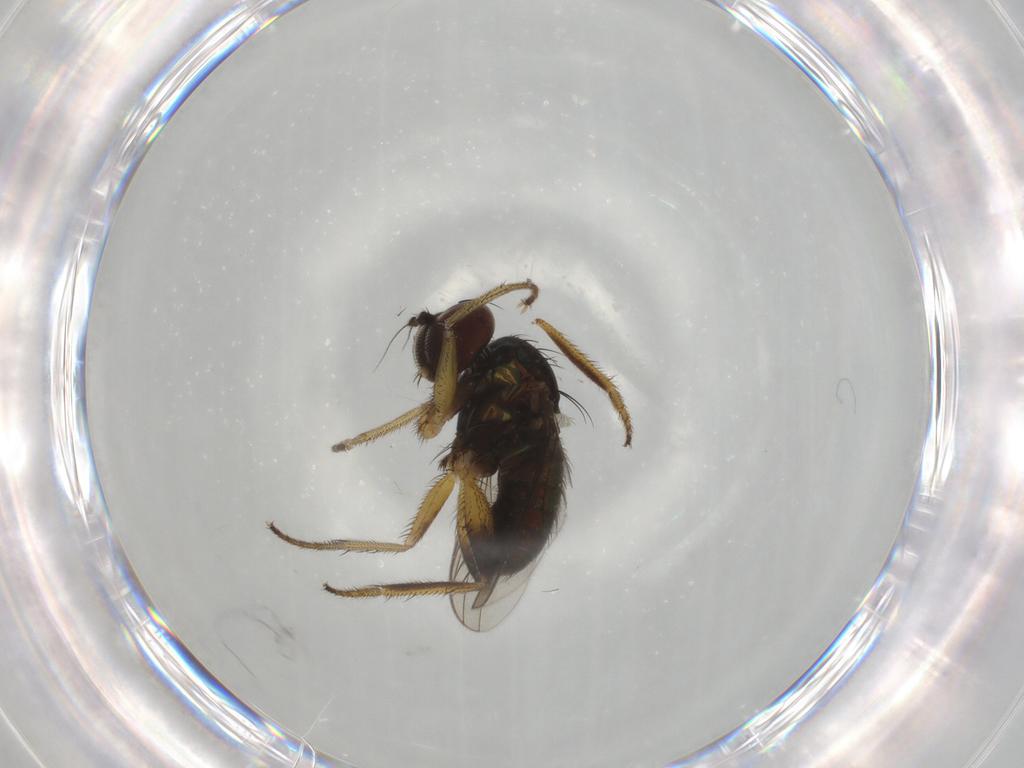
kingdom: Animalia
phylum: Arthropoda
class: Insecta
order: Diptera
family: Dolichopodidae
